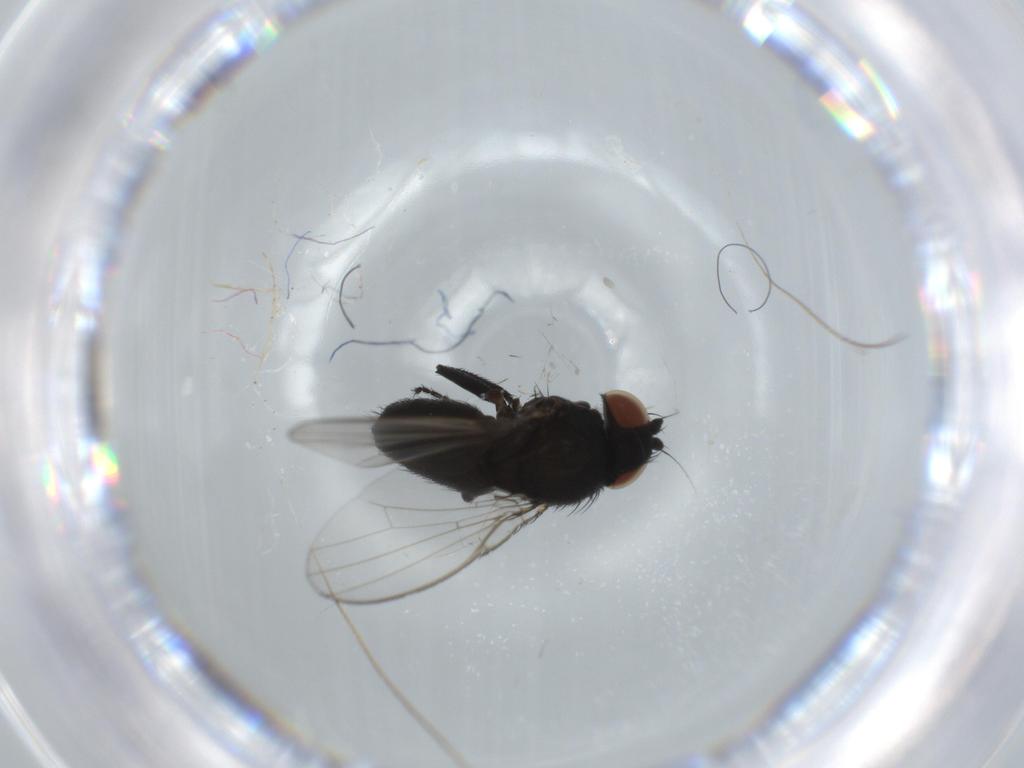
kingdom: Animalia
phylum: Arthropoda
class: Insecta
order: Diptera
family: Milichiidae
